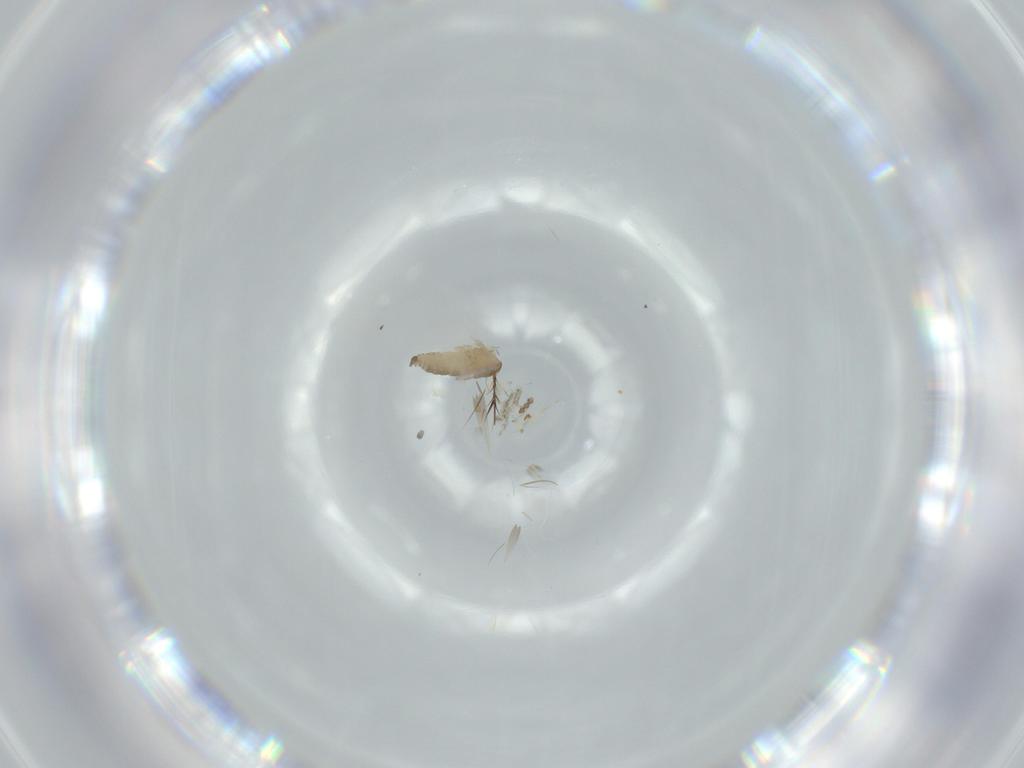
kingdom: Animalia
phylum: Arthropoda
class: Insecta
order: Diptera
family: Cecidomyiidae
